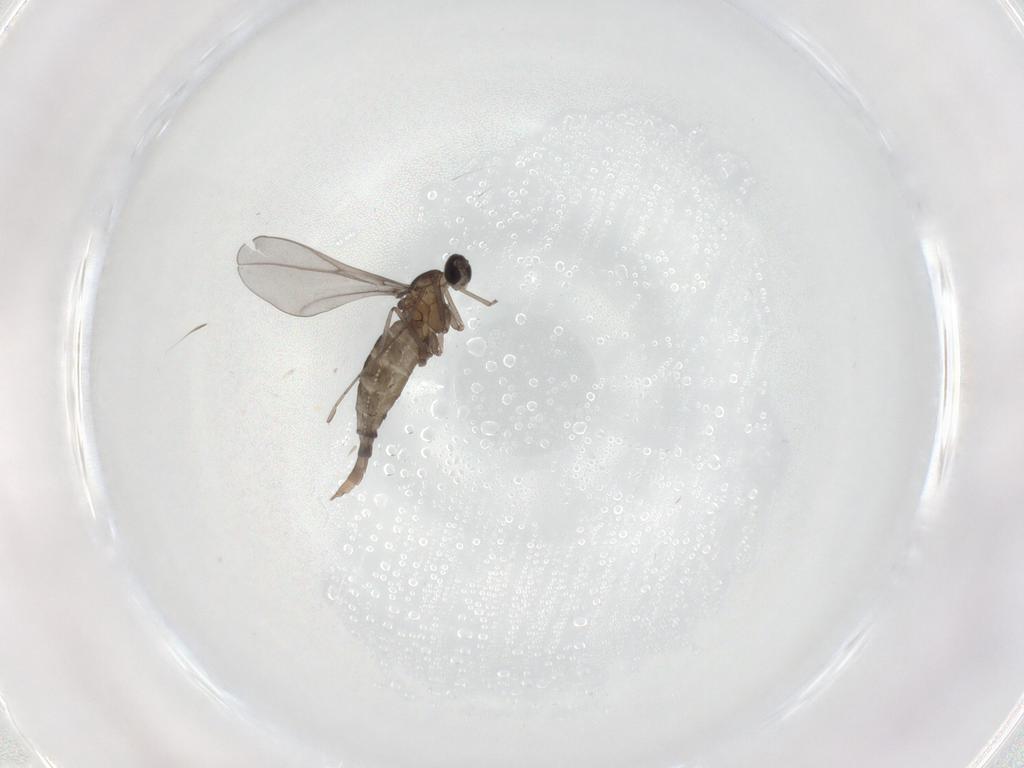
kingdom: Animalia
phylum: Arthropoda
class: Insecta
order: Diptera
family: Cecidomyiidae
